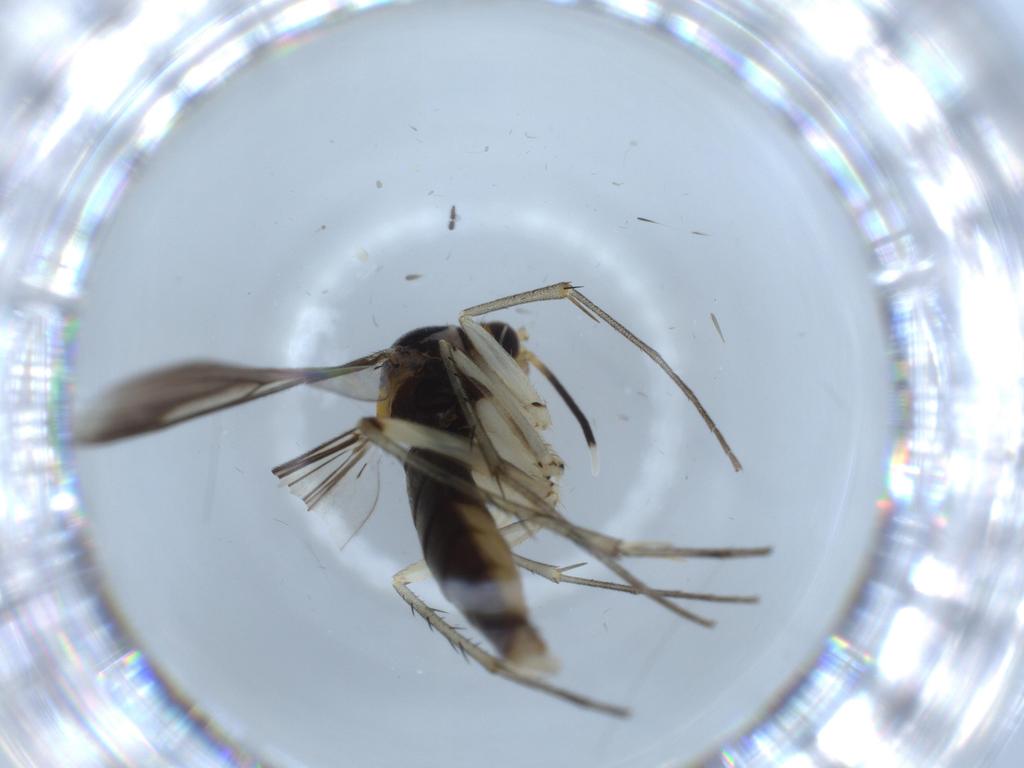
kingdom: Animalia
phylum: Arthropoda
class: Insecta
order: Diptera
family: Mycetophilidae
